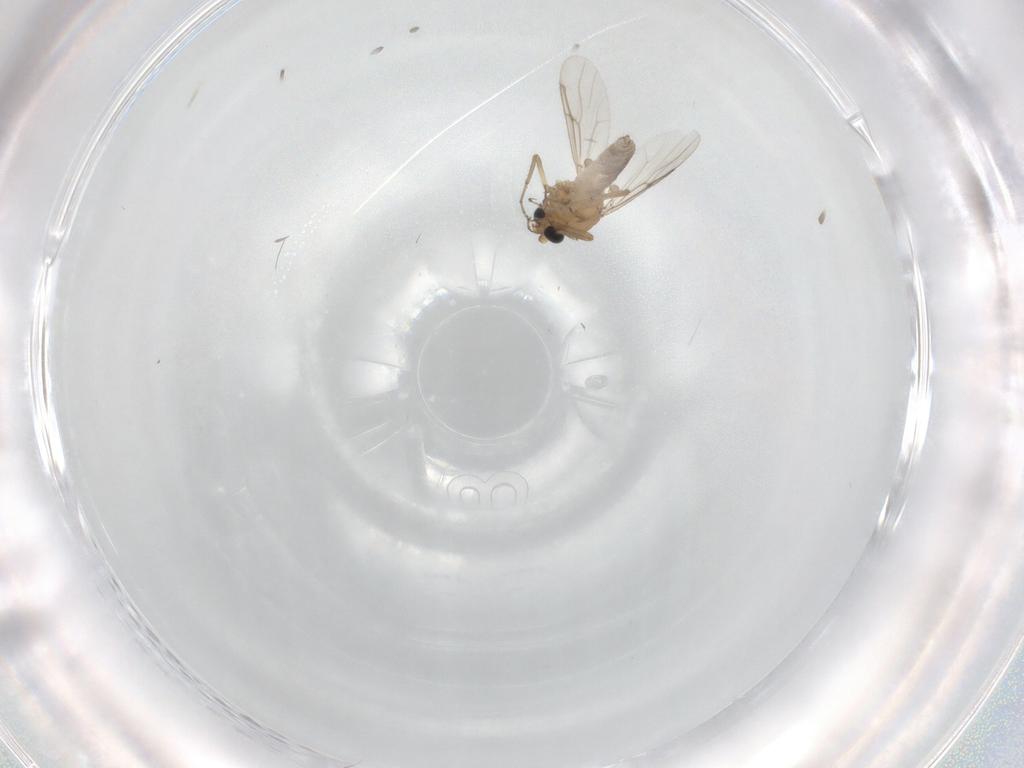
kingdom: Animalia
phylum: Arthropoda
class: Insecta
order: Diptera
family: Ceratopogonidae
